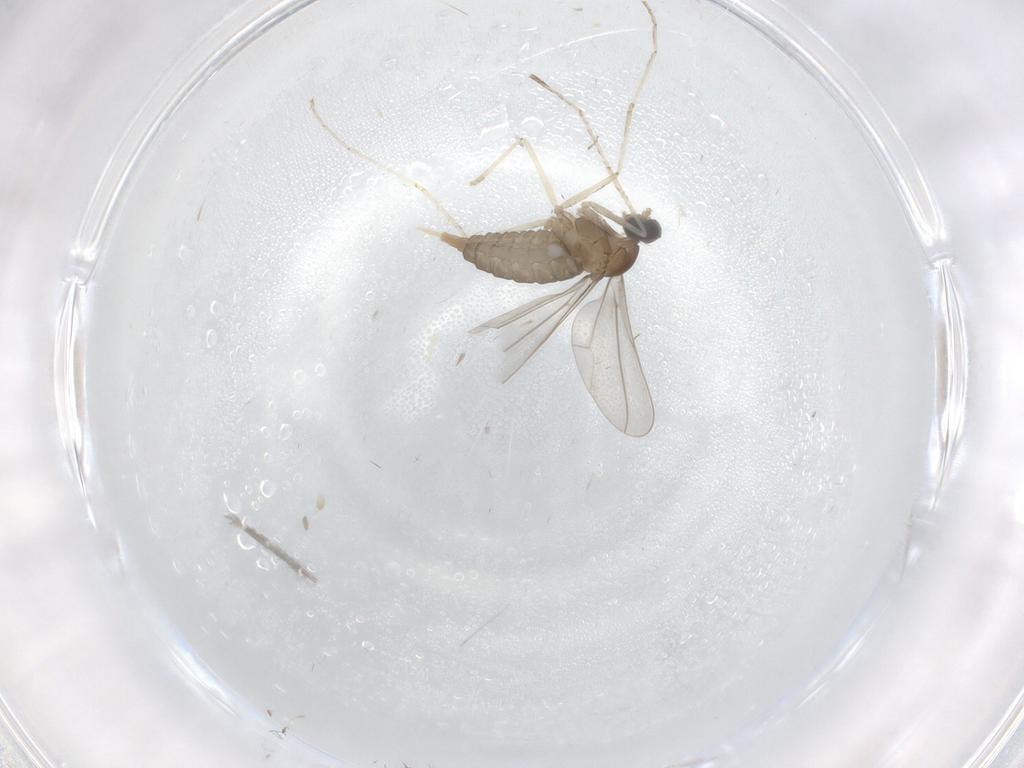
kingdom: Animalia
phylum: Arthropoda
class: Insecta
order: Diptera
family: Cecidomyiidae
